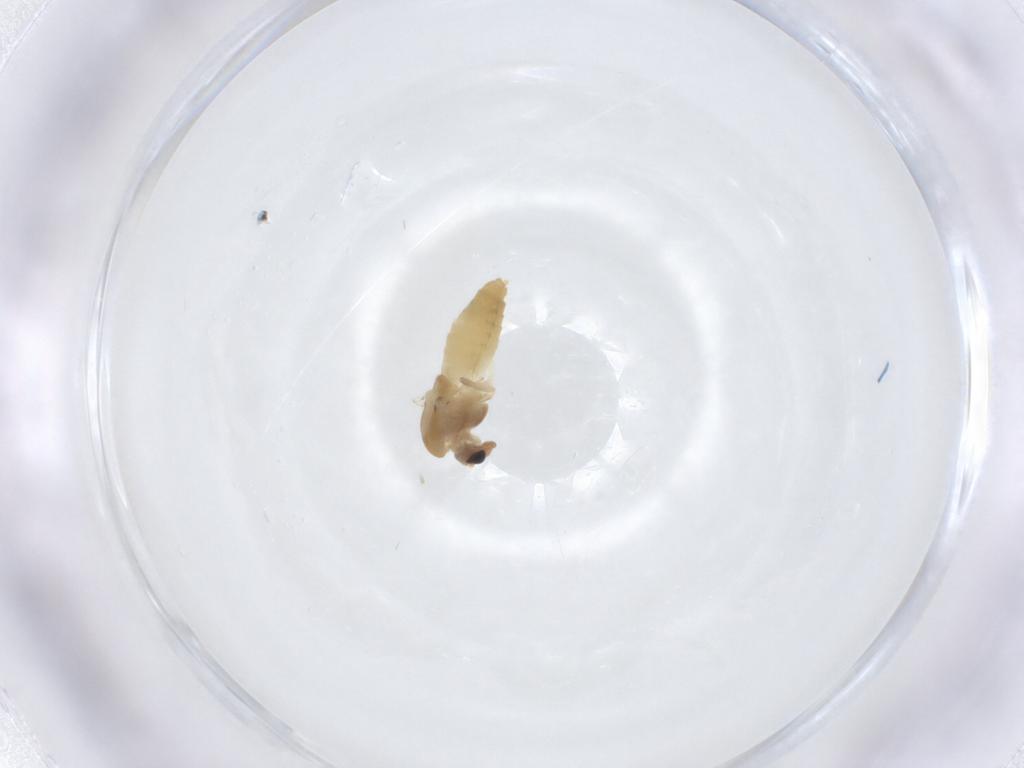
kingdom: Animalia
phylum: Arthropoda
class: Insecta
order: Diptera
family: Chironomidae
